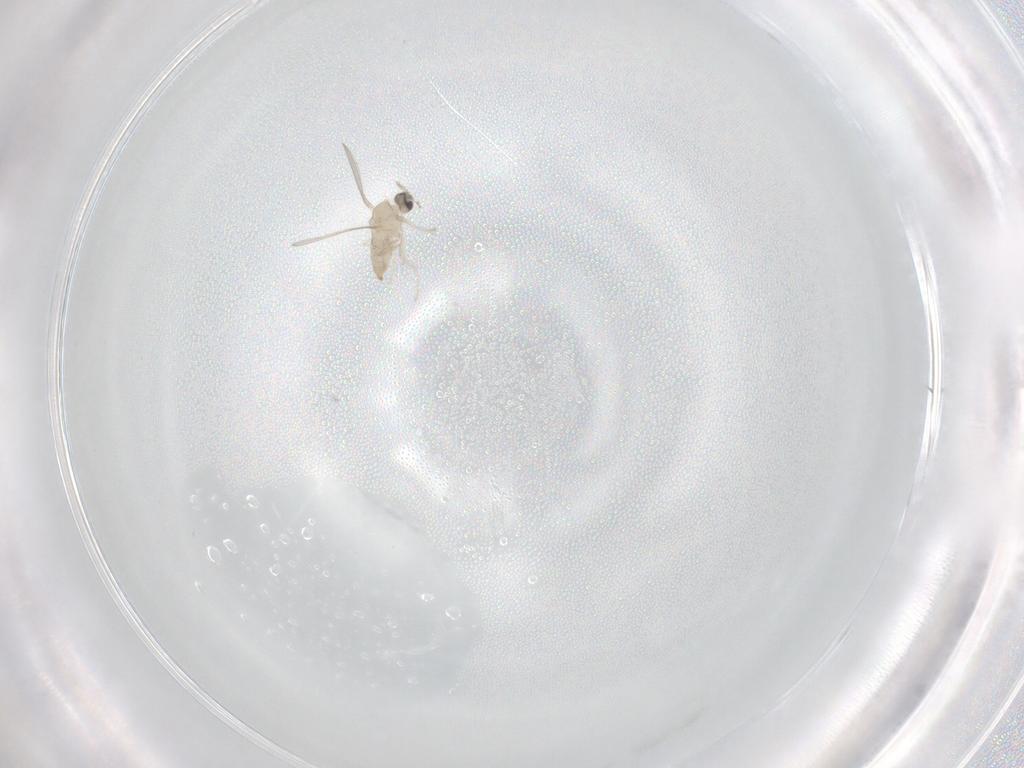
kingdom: Animalia
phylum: Arthropoda
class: Insecta
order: Diptera
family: Cecidomyiidae
